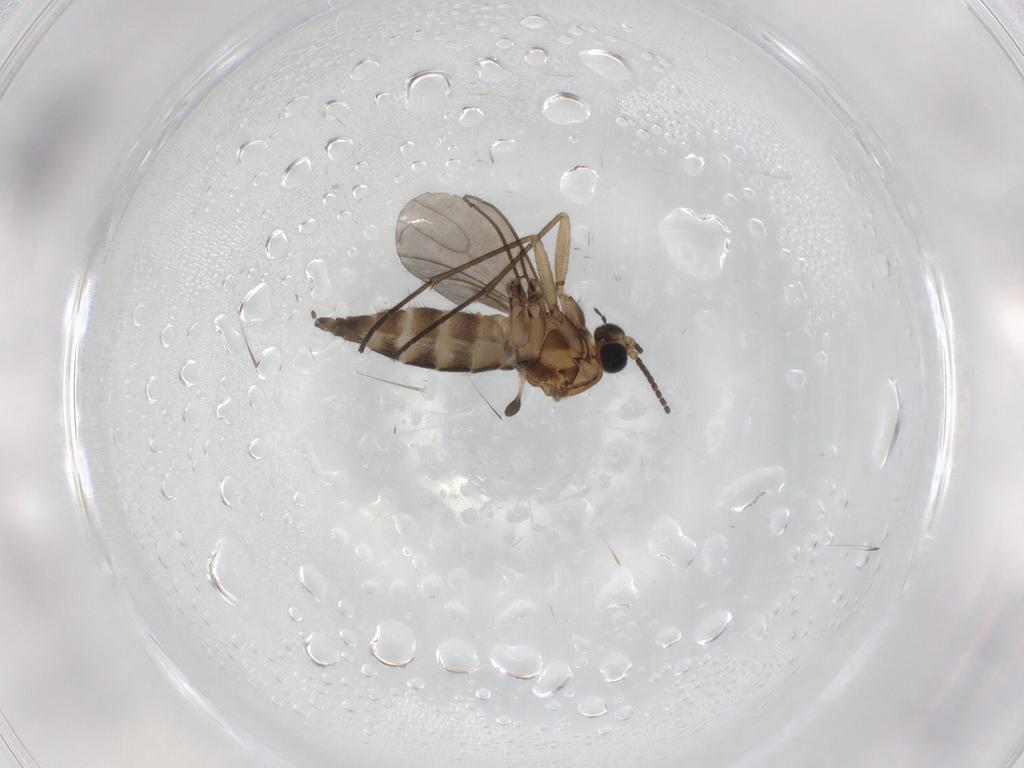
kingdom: Animalia
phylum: Arthropoda
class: Insecta
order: Diptera
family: Sciaridae
